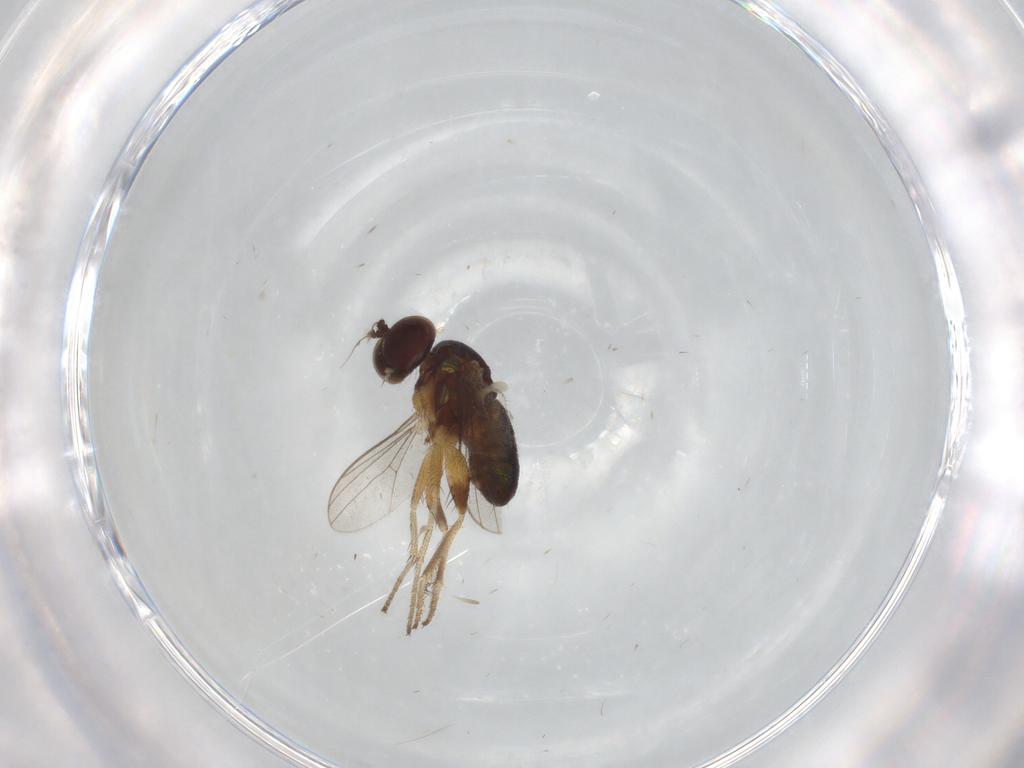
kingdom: Animalia
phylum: Arthropoda
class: Insecta
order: Diptera
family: Ceratopogonidae
